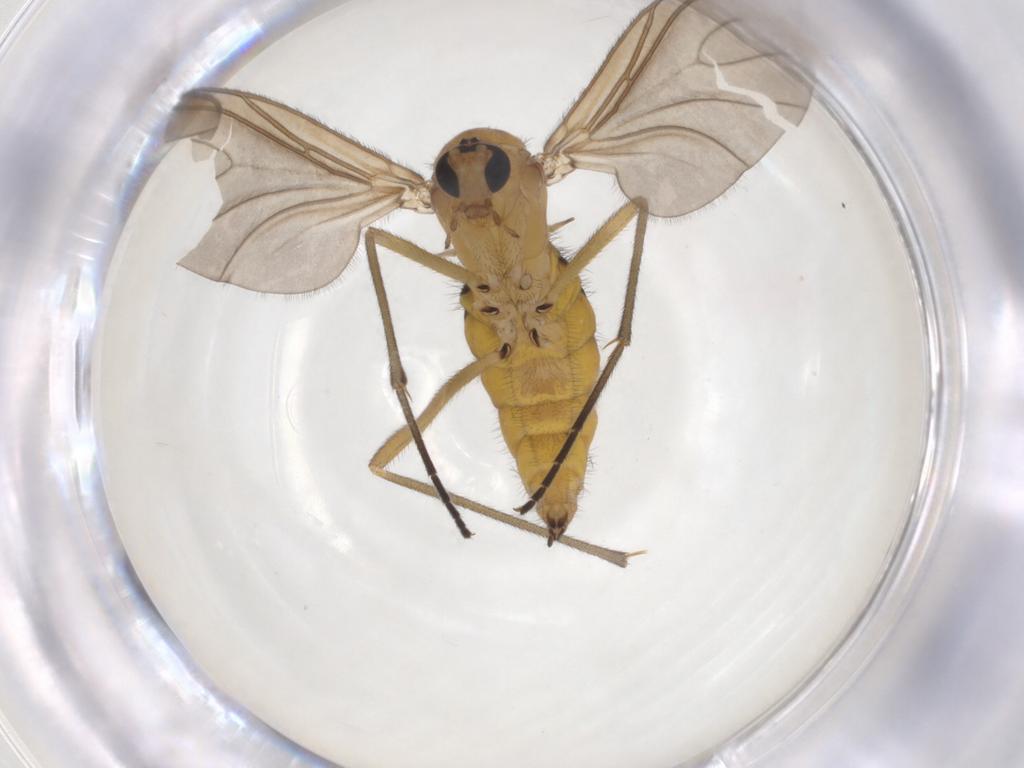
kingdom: Animalia
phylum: Arthropoda
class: Insecta
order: Diptera
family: Sciaridae
